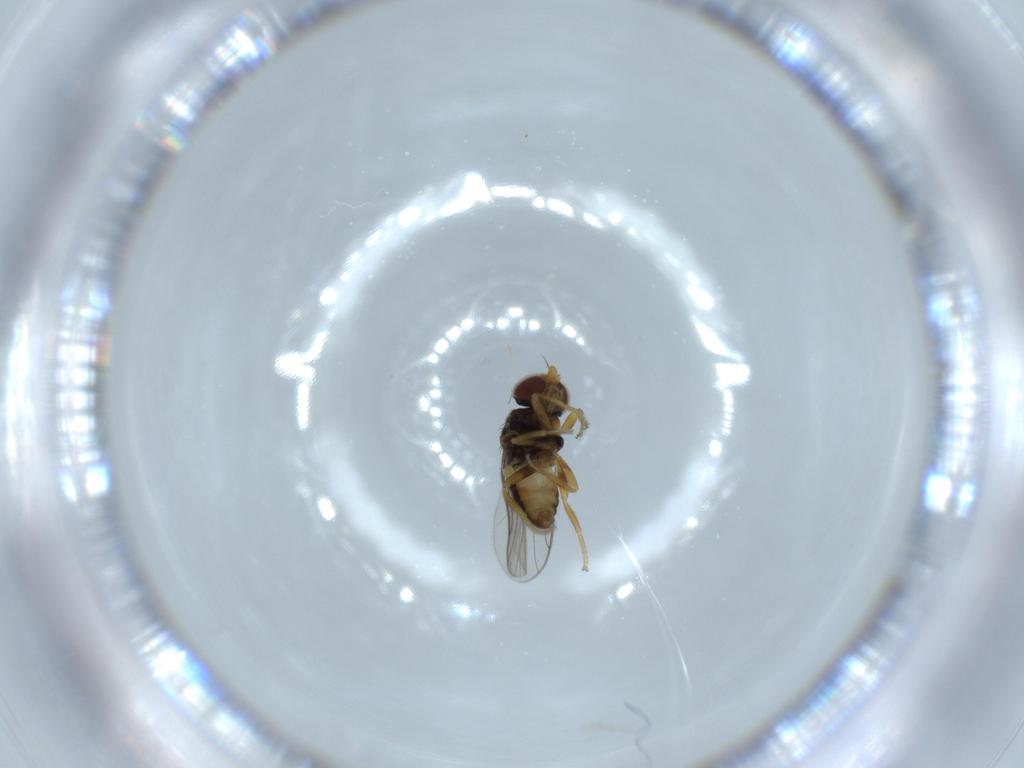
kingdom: Animalia
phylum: Arthropoda
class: Insecta
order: Diptera
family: Chloropidae
